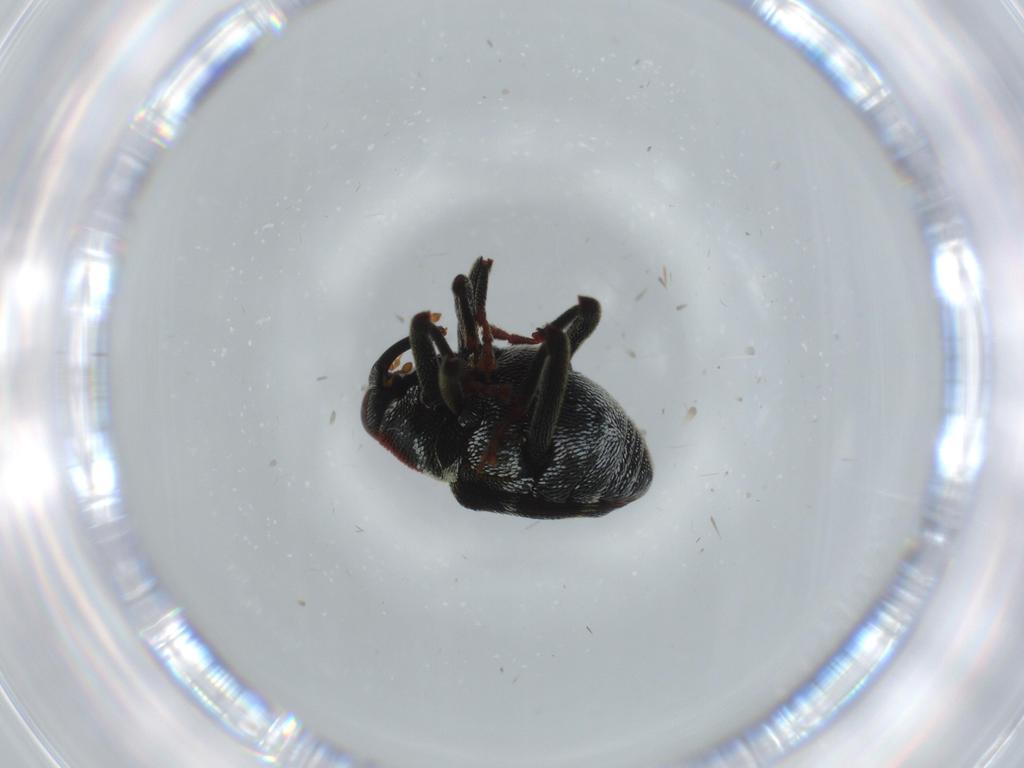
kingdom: Animalia
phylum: Arthropoda
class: Insecta
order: Coleoptera
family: Curculionidae
